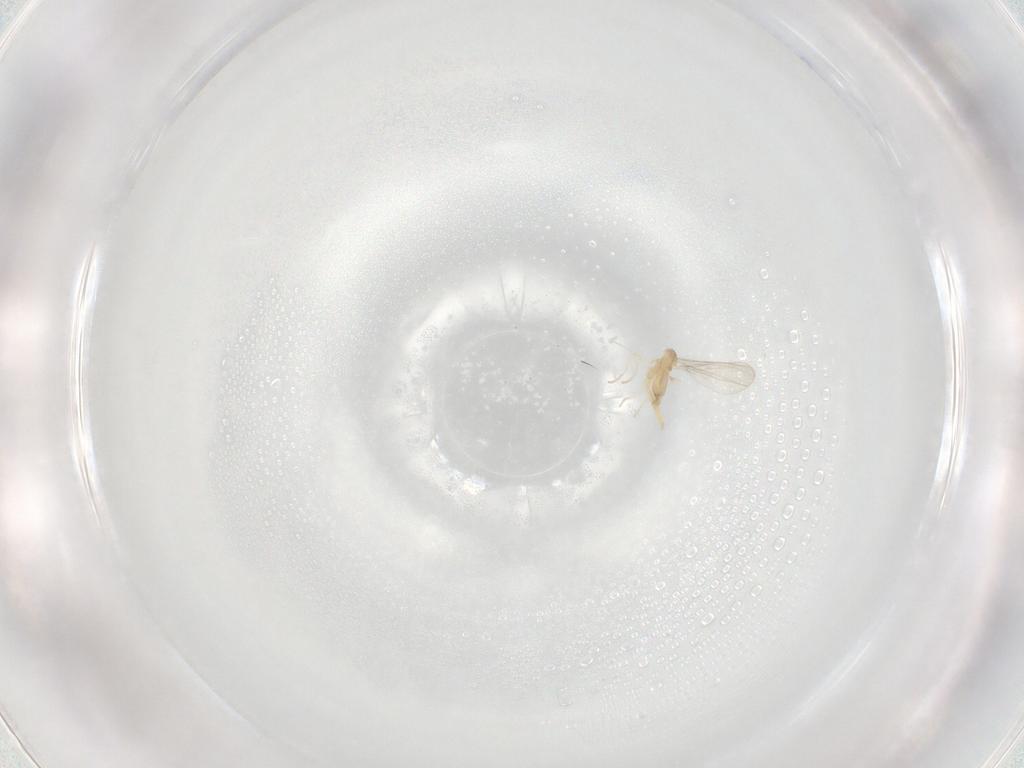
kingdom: Animalia
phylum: Arthropoda
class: Insecta
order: Diptera
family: Cecidomyiidae
